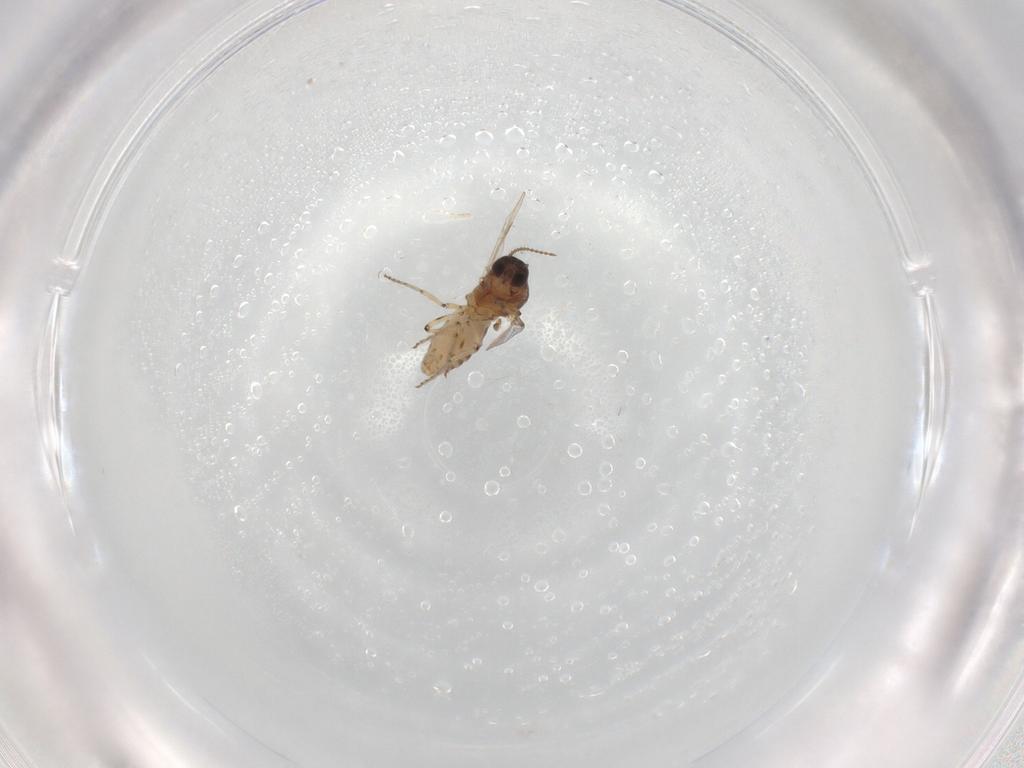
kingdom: Animalia
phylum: Arthropoda
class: Insecta
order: Diptera
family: Ceratopogonidae
